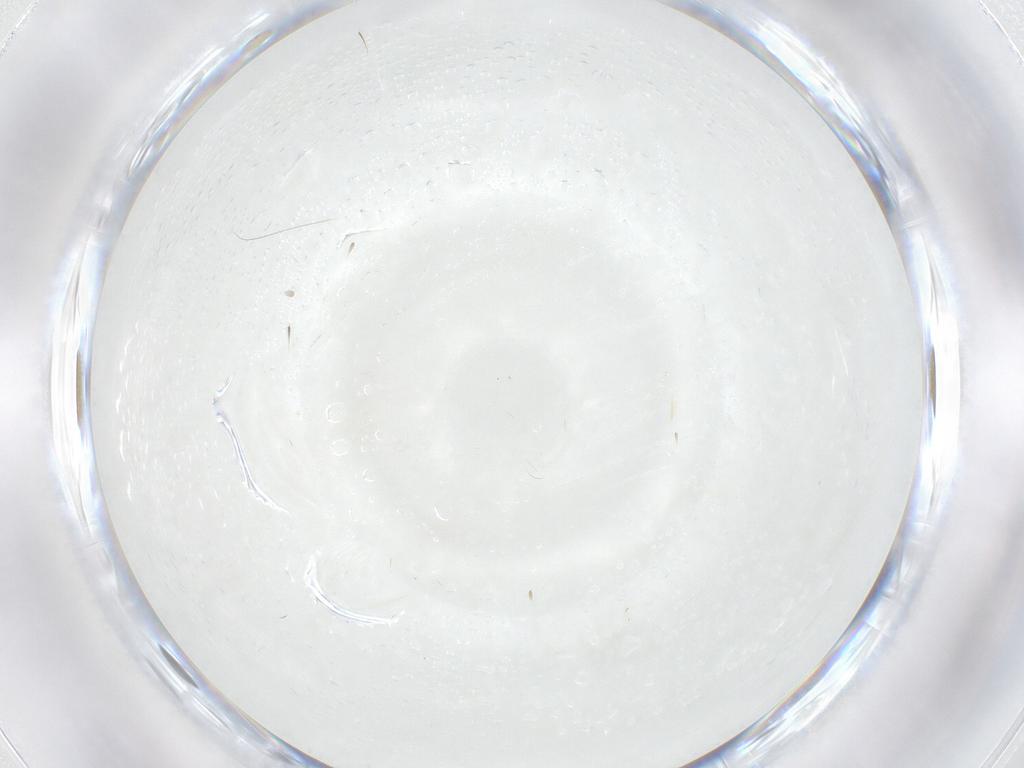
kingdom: Animalia
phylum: Arthropoda
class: Insecta
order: Lepidoptera
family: Geometridae
